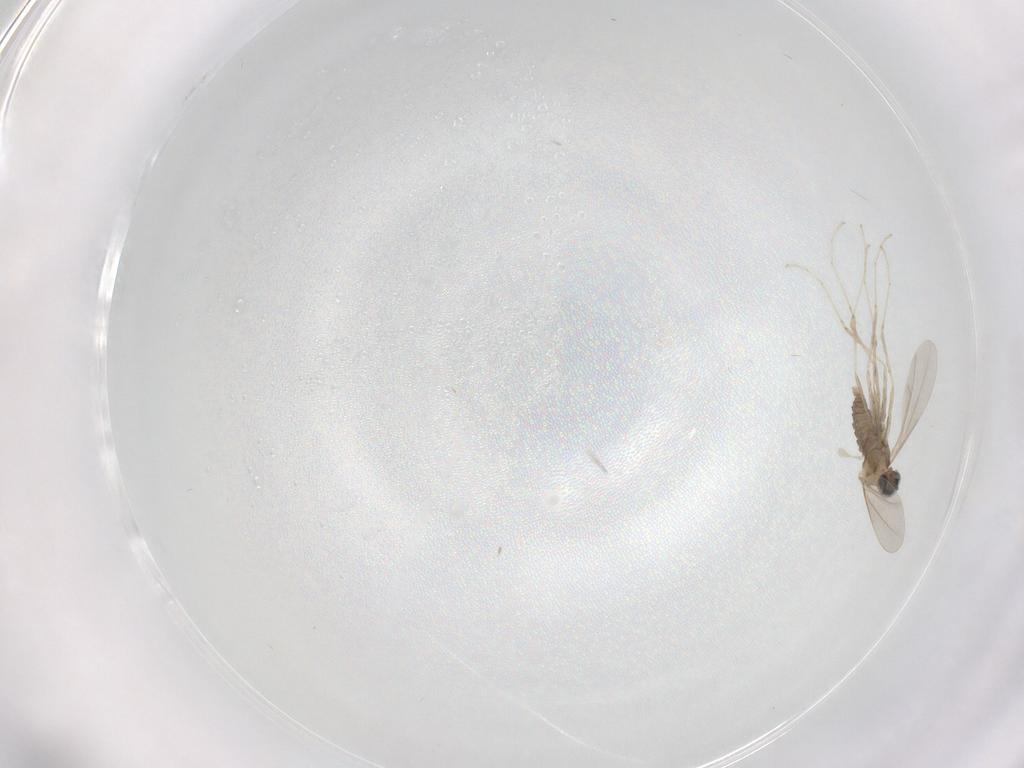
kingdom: Animalia
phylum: Arthropoda
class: Insecta
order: Diptera
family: Cecidomyiidae
